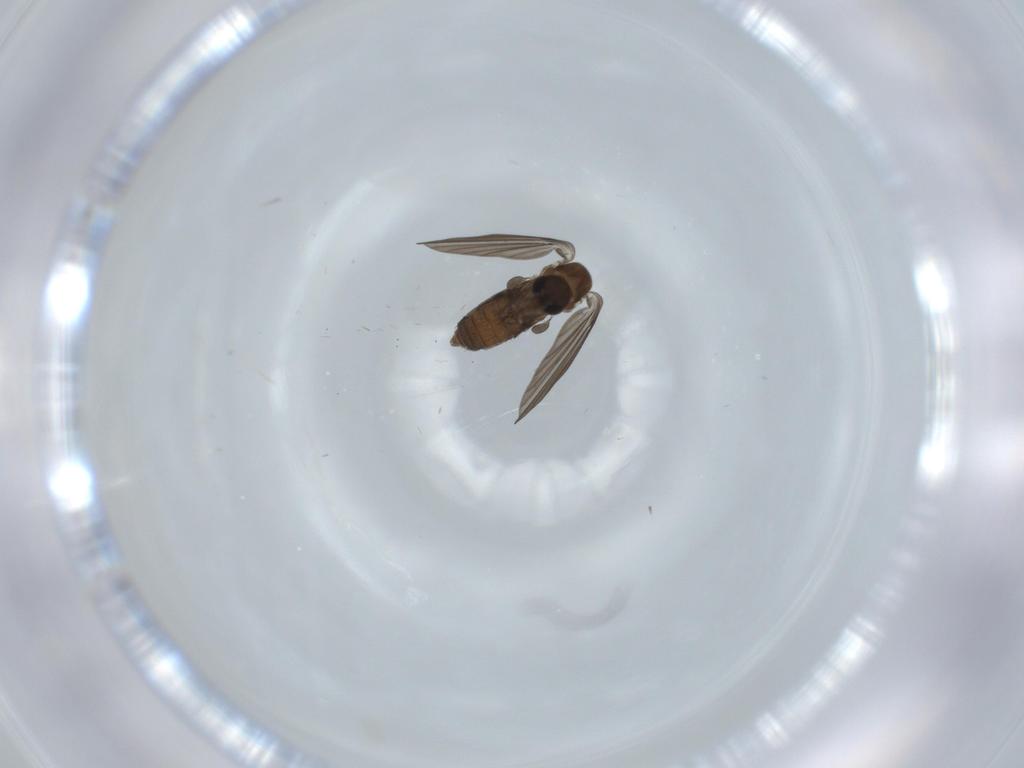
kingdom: Animalia
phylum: Arthropoda
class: Insecta
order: Diptera
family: Psychodidae
